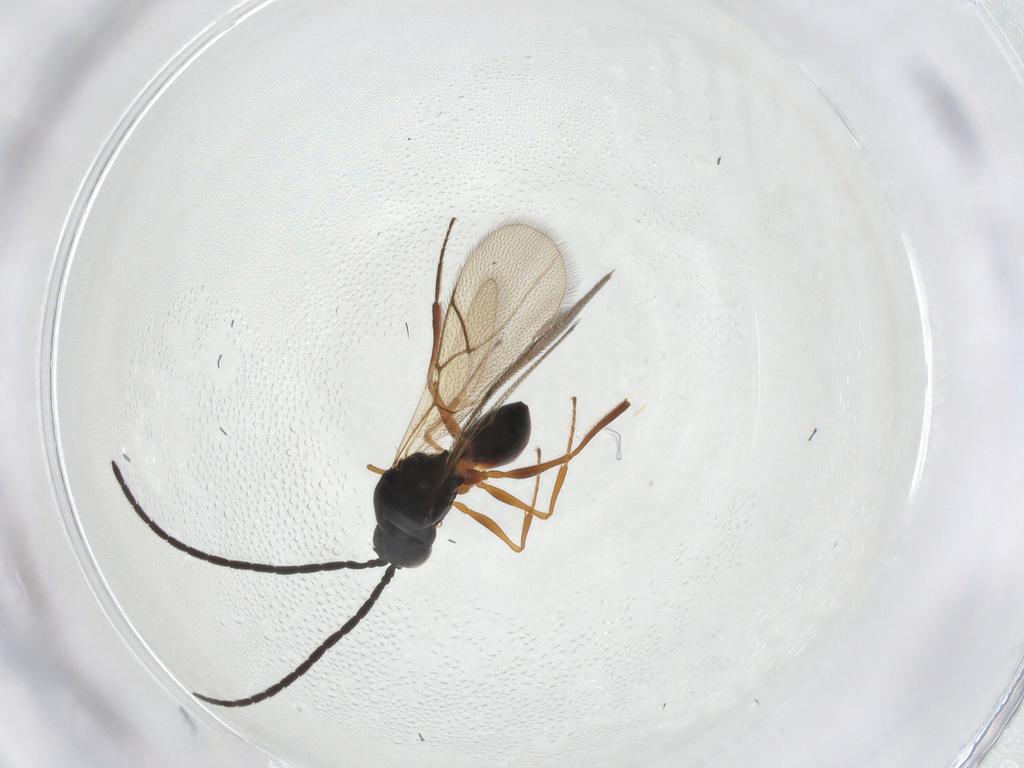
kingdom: Animalia
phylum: Arthropoda
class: Insecta
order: Hymenoptera
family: Figitidae
